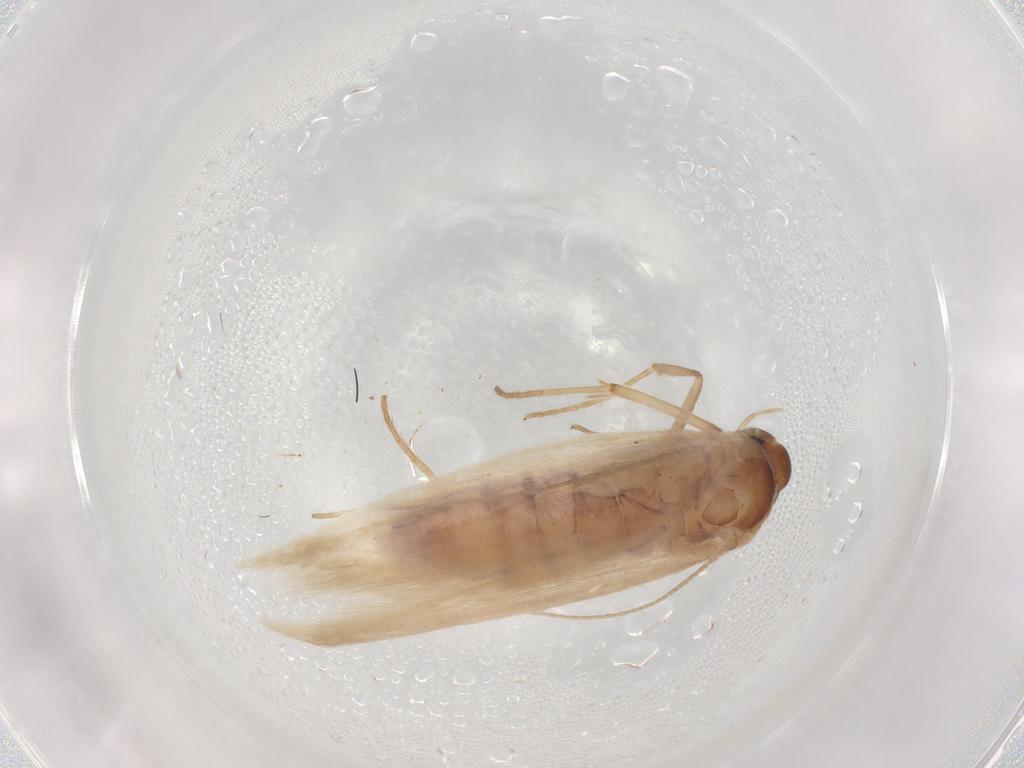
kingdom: Animalia
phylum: Arthropoda
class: Insecta
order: Lepidoptera
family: Scythrididae
